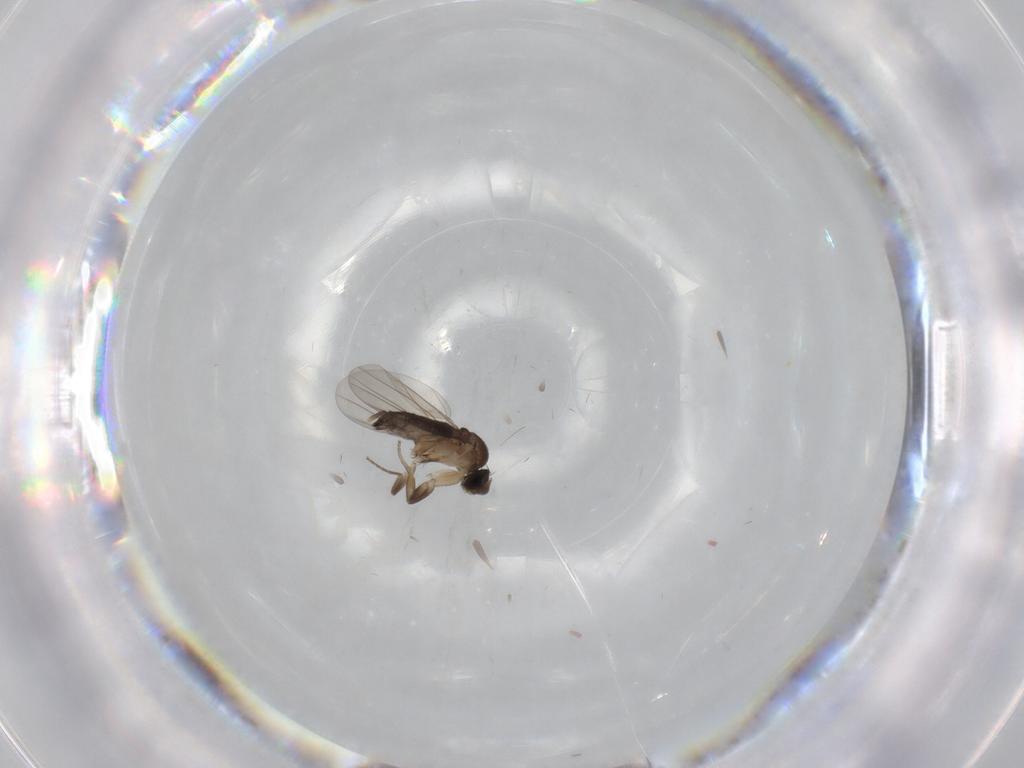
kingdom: Animalia
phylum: Arthropoda
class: Insecta
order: Diptera
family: Phoridae
